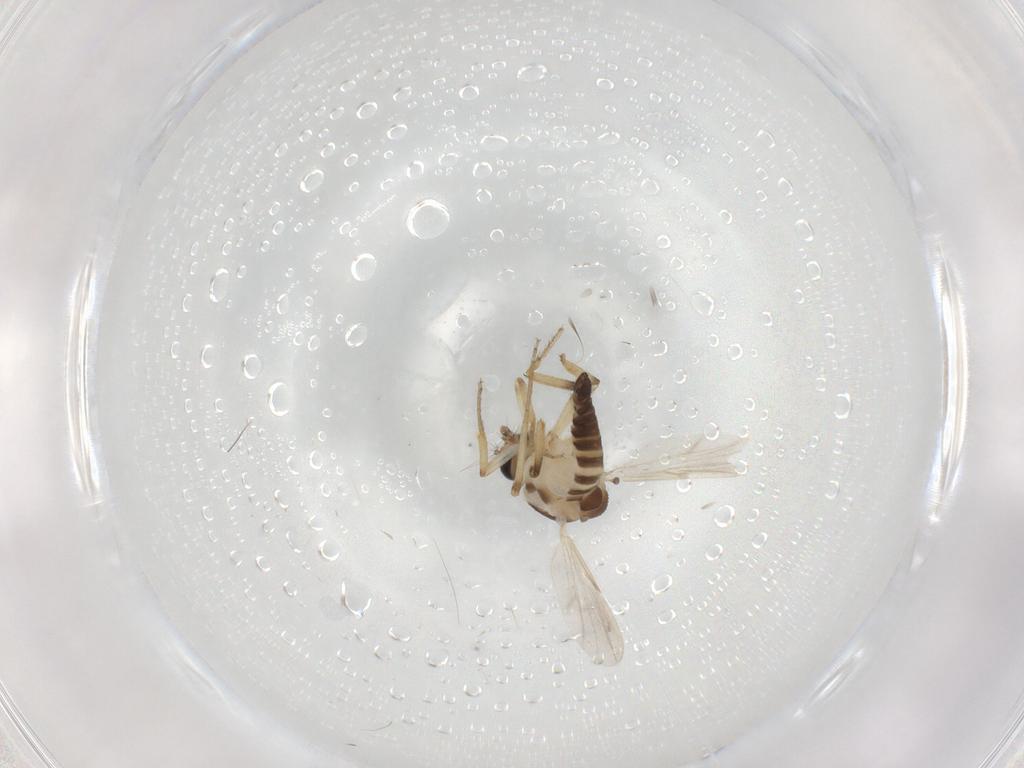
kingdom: Animalia
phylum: Arthropoda
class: Insecta
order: Diptera
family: Ceratopogonidae
